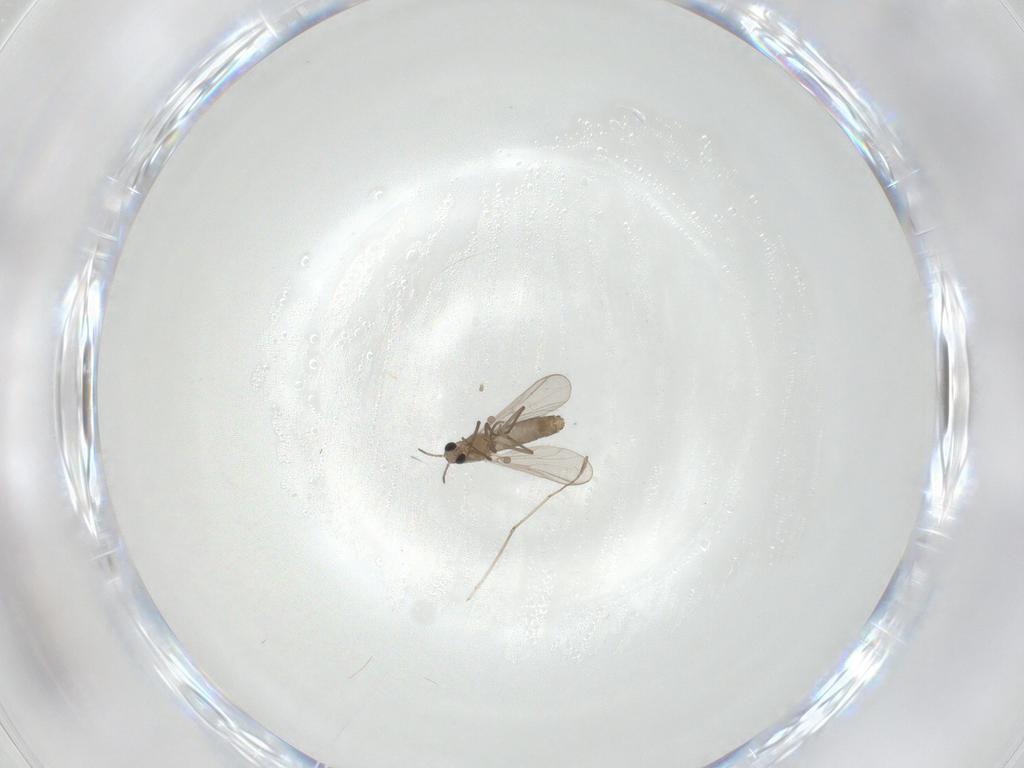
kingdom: Animalia
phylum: Arthropoda
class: Insecta
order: Diptera
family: Chironomidae
